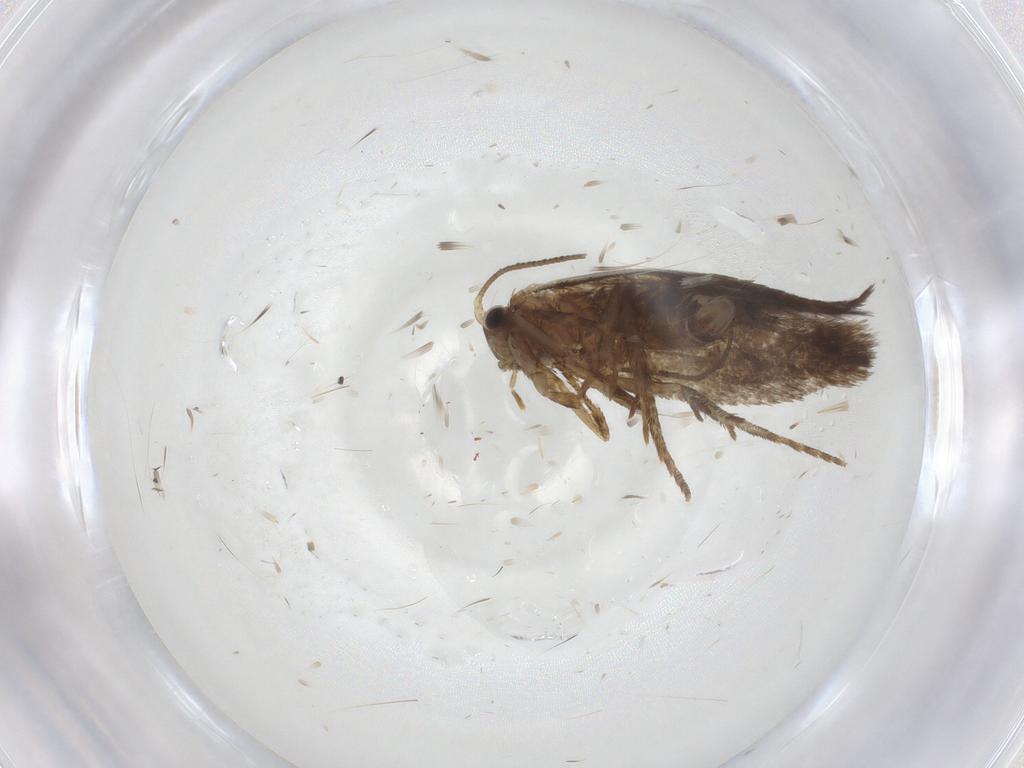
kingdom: Animalia
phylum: Arthropoda
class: Insecta
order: Lepidoptera
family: Tineidae
